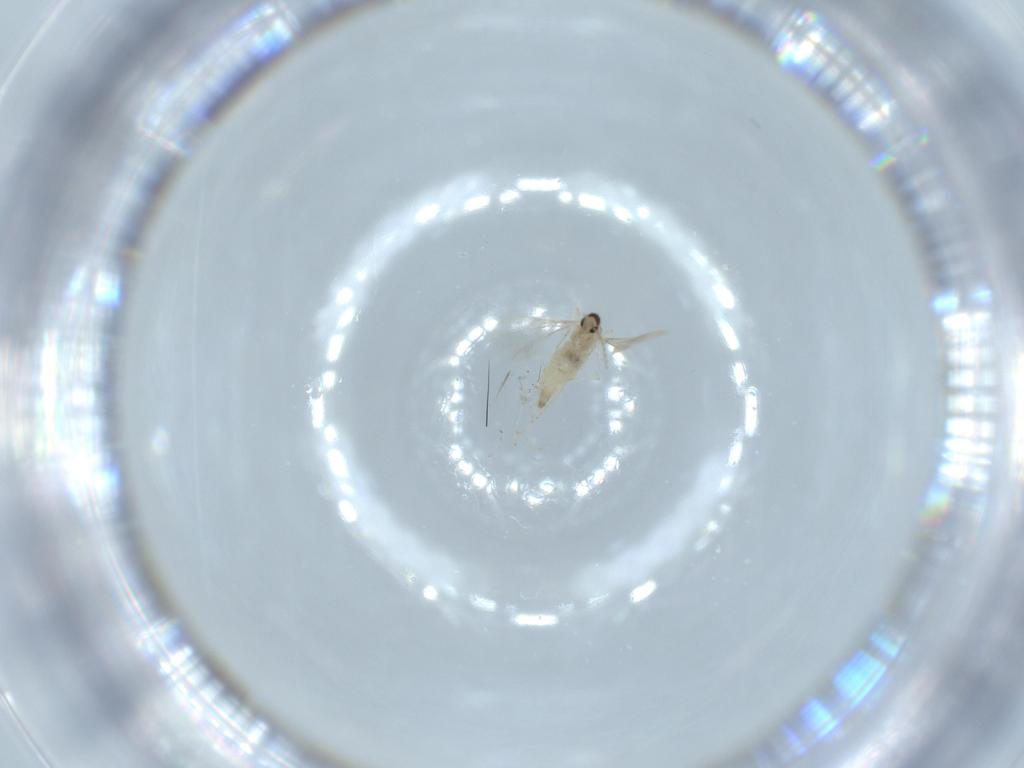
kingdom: Animalia
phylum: Arthropoda
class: Insecta
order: Diptera
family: Cecidomyiidae
